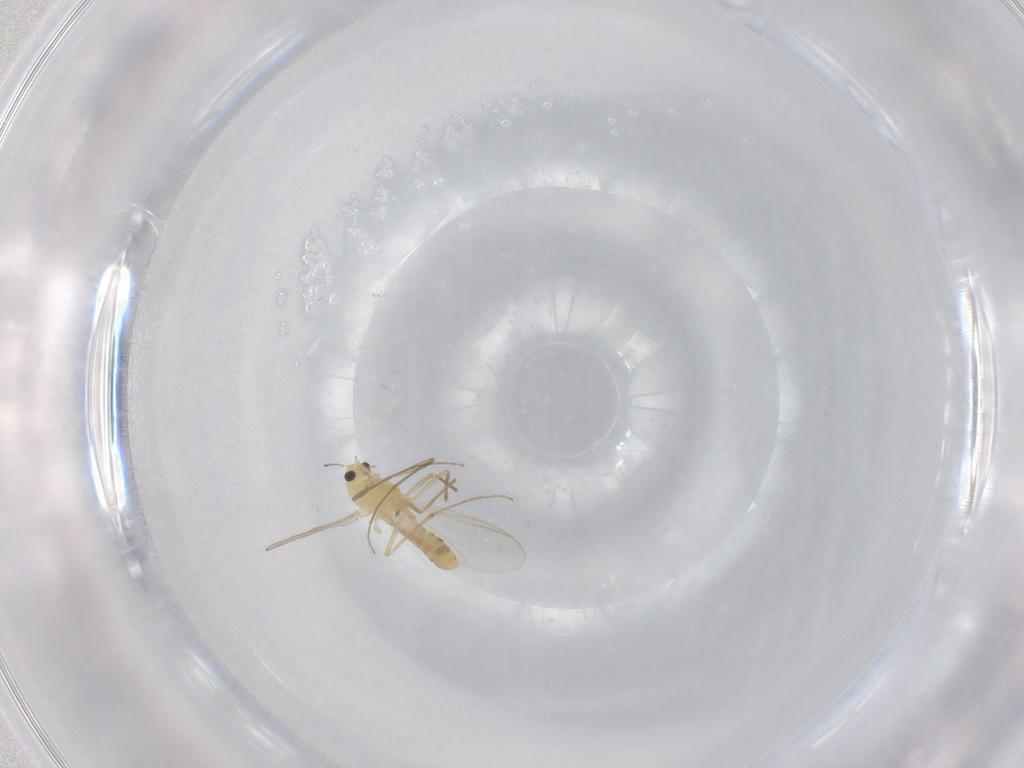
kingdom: Animalia
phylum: Arthropoda
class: Insecta
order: Diptera
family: Chironomidae
